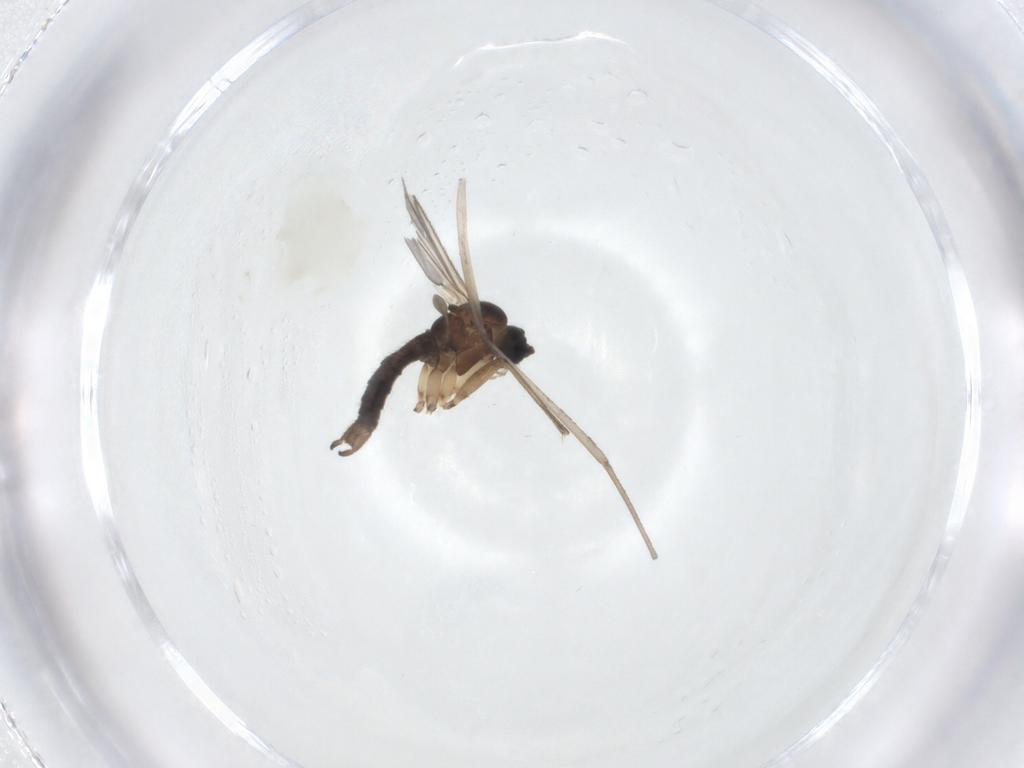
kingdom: Animalia
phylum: Arthropoda
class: Insecta
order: Diptera
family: Sciaridae
